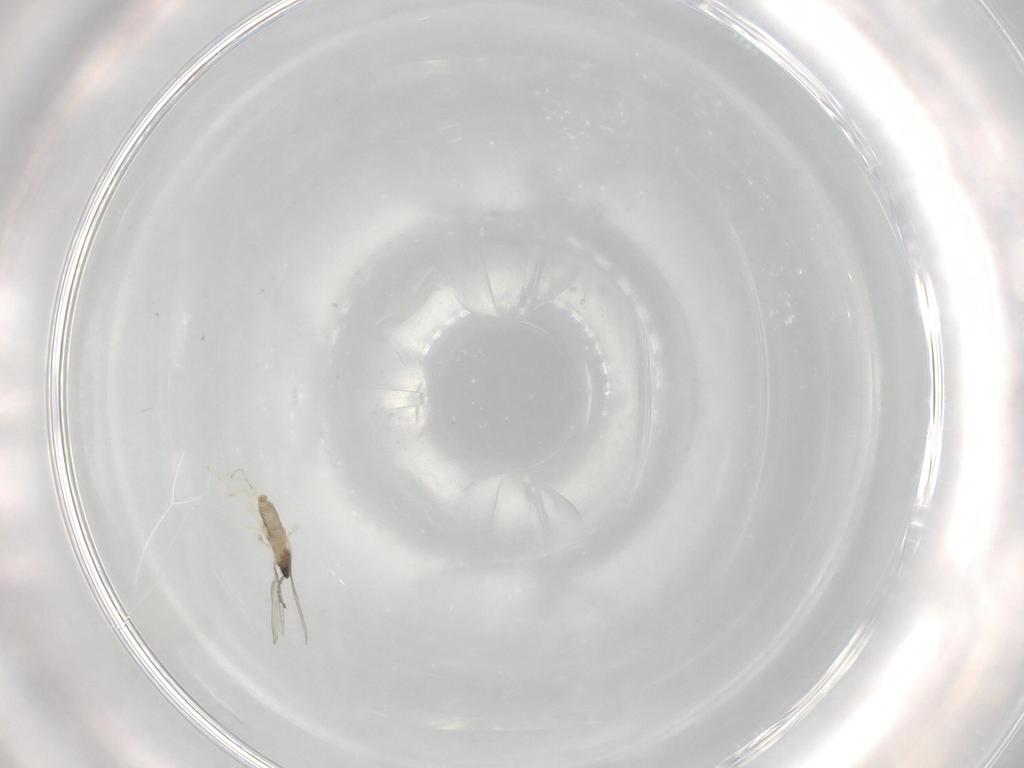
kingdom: Animalia
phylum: Arthropoda
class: Insecta
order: Diptera
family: Cecidomyiidae
